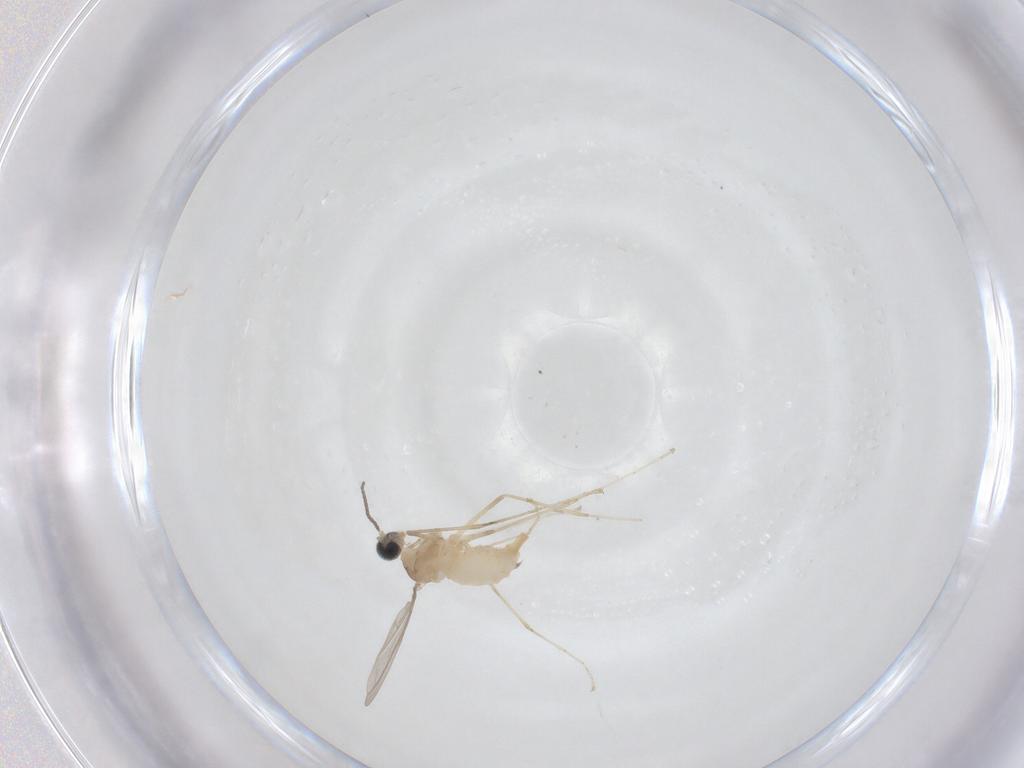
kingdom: Animalia
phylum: Arthropoda
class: Insecta
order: Diptera
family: Cecidomyiidae
